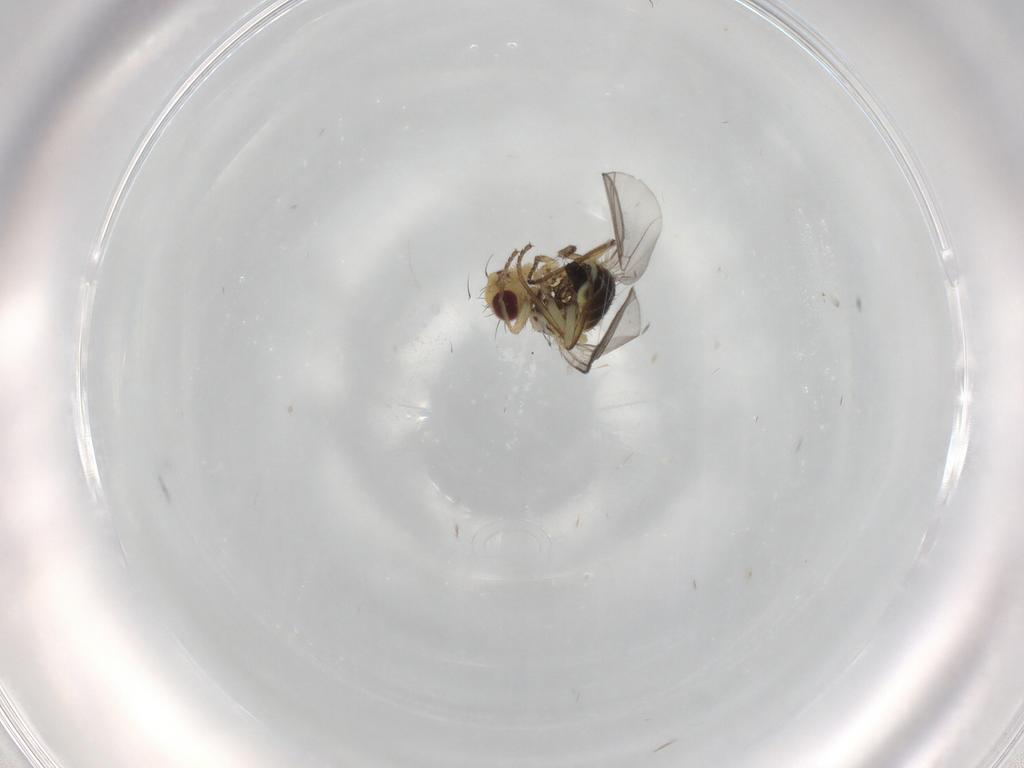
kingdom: Animalia
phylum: Arthropoda
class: Insecta
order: Diptera
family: Agromyzidae
